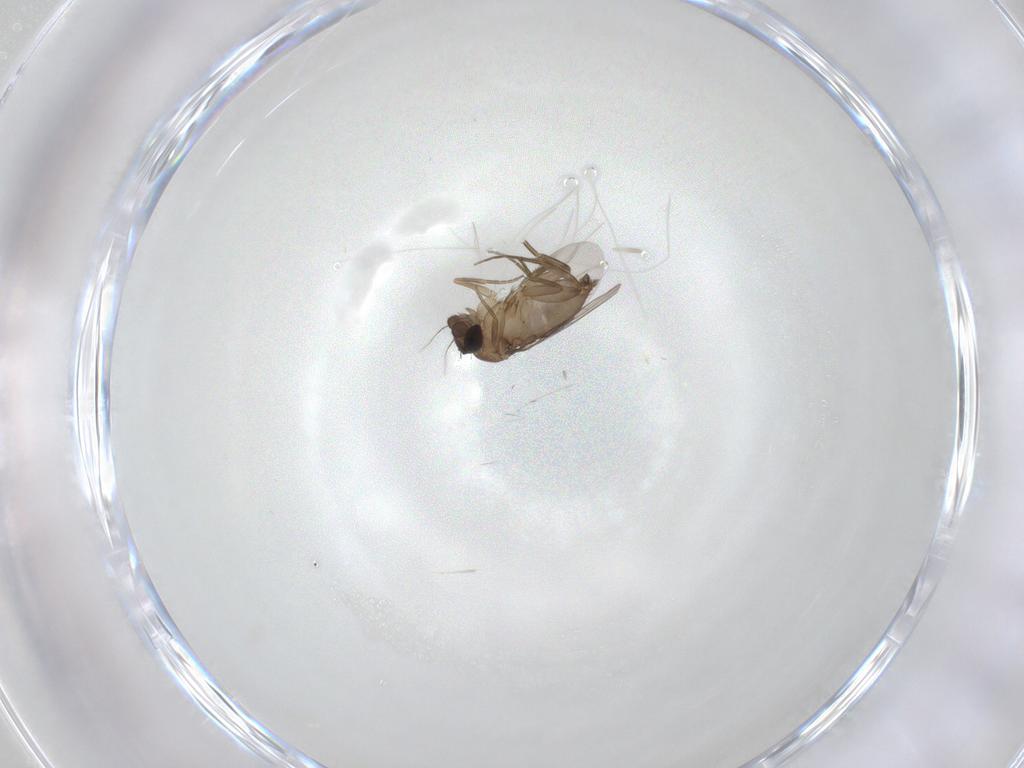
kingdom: Animalia
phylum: Arthropoda
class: Insecta
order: Diptera
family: Phoridae
